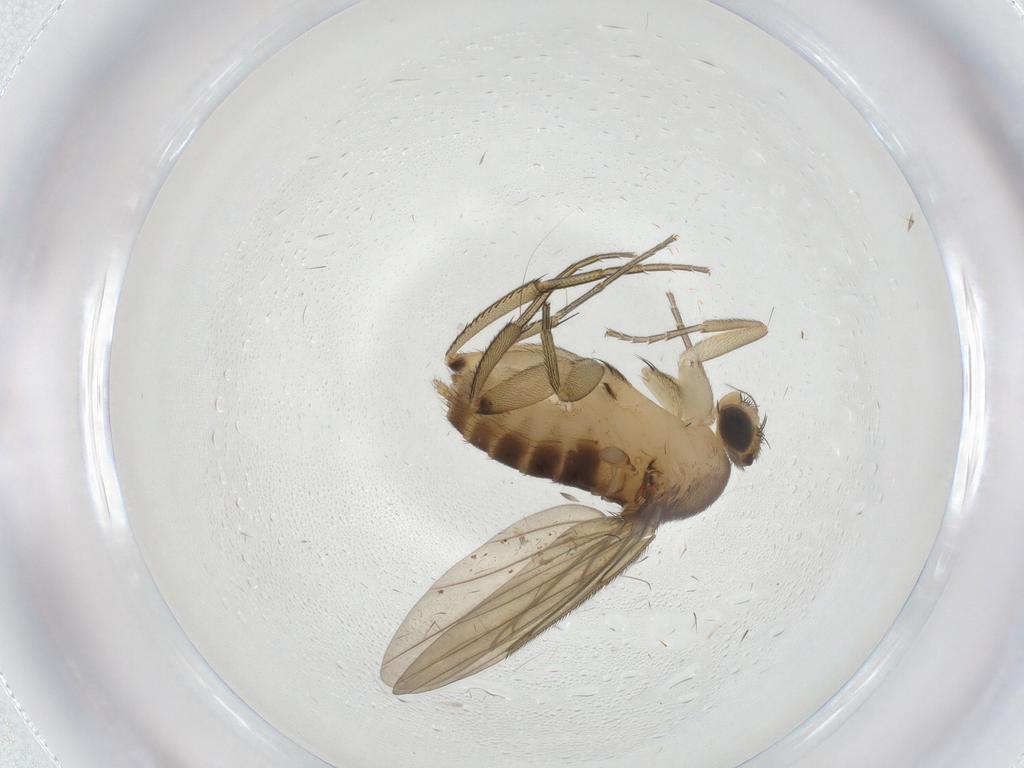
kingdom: Animalia
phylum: Arthropoda
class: Insecta
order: Diptera
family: Phoridae
